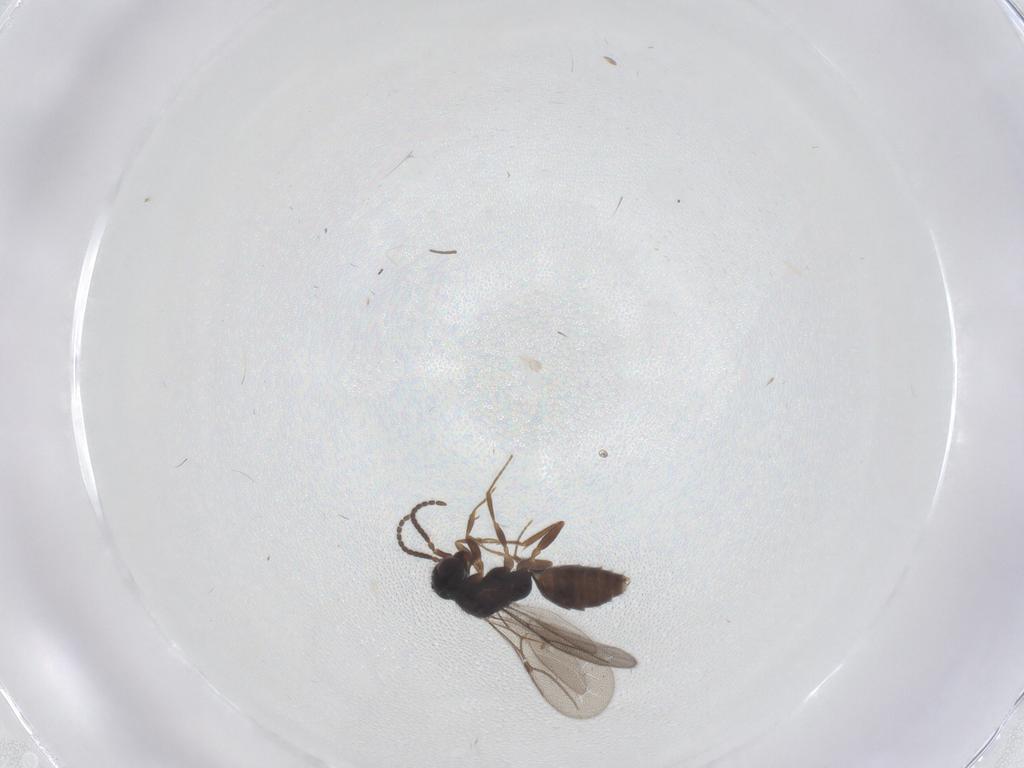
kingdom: Animalia
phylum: Arthropoda
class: Insecta
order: Hymenoptera
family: Bethylidae
